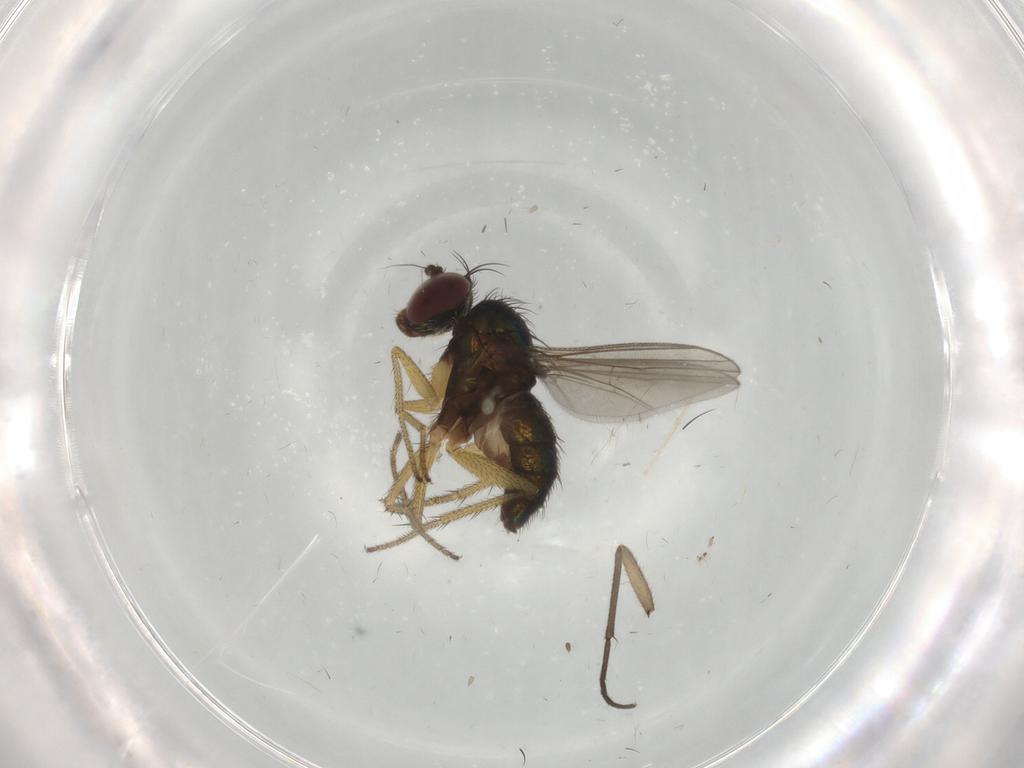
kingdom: Animalia
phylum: Arthropoda
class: Insecta
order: Diptera
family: Sciaridae
